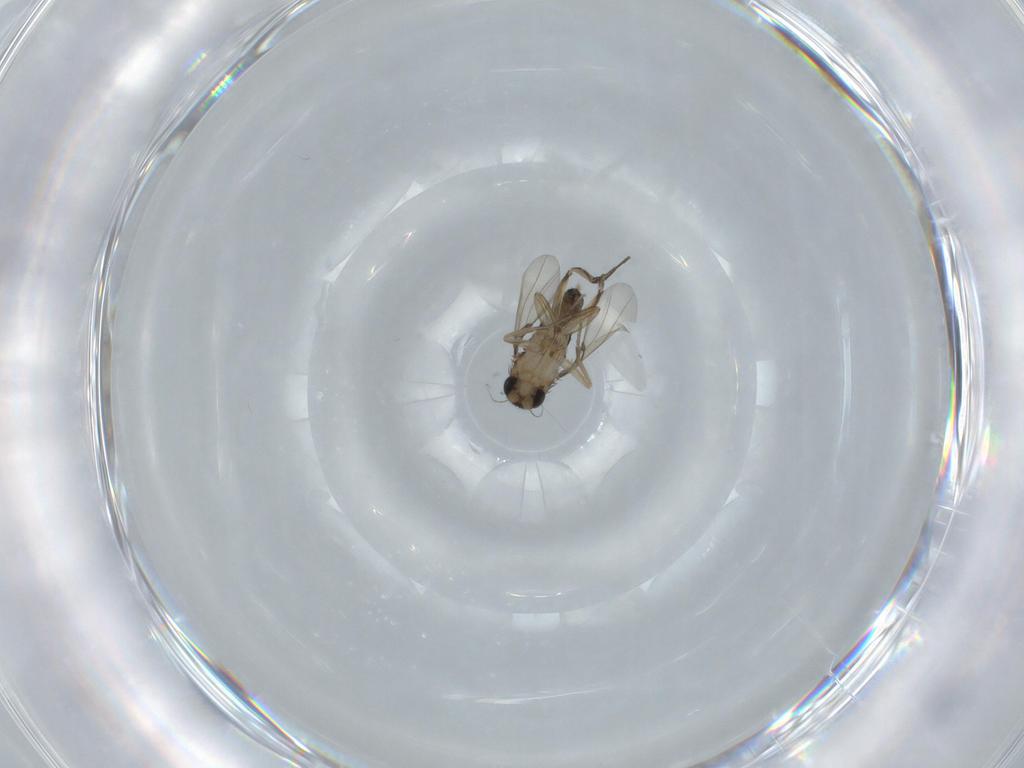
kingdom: Animalia
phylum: Arthropoda
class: Insecta
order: Diptera
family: Phoridae
